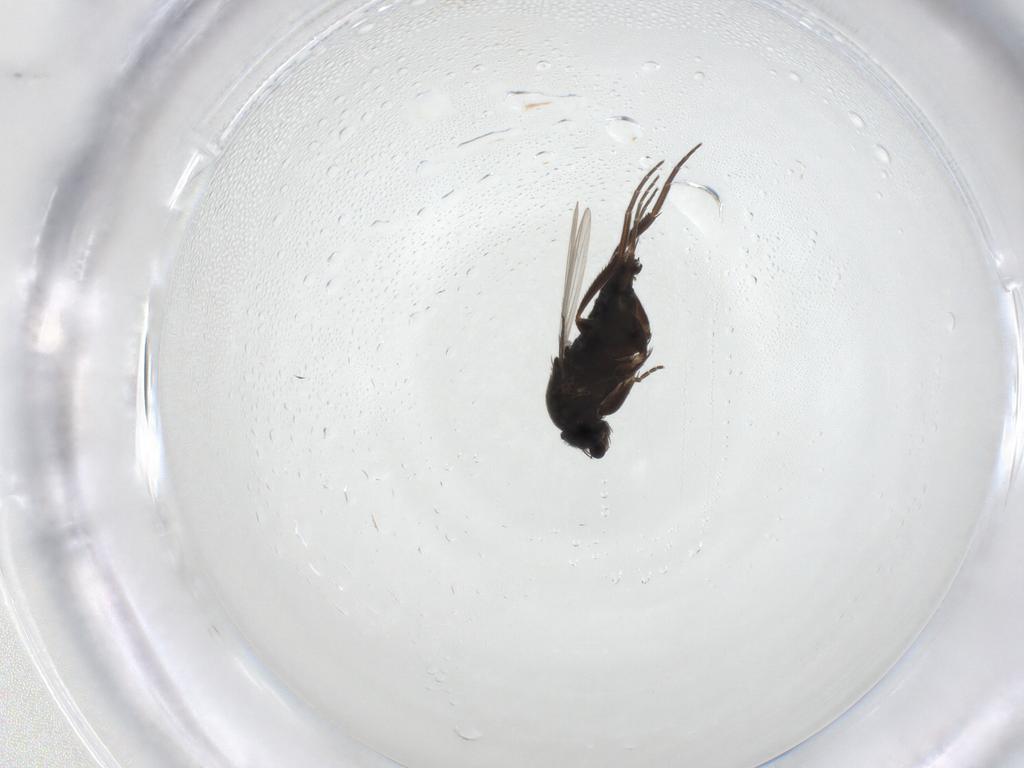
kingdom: Animalia
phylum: Arthropoda
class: Insecta
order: Diptera
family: Phoridae
